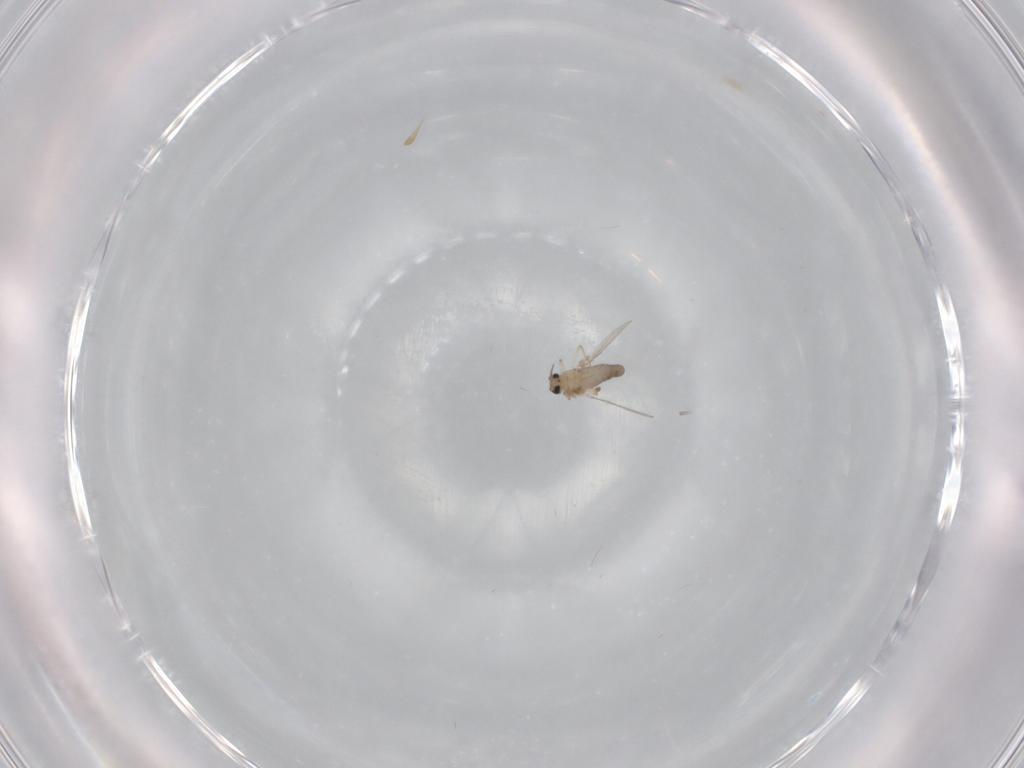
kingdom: Animalia
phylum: Arthropoda
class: Insecta
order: Diptera
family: Ceratopogonidae
